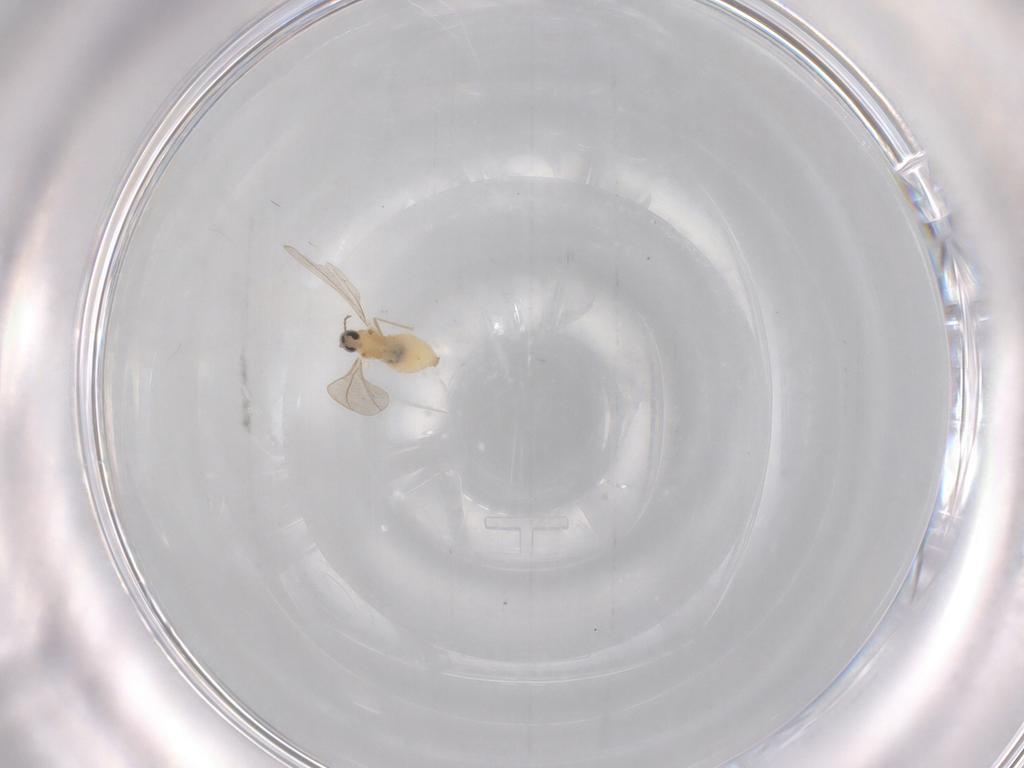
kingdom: Animalia
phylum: Arthropoda
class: Insecta
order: Diptera
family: Cecidomyiidae
